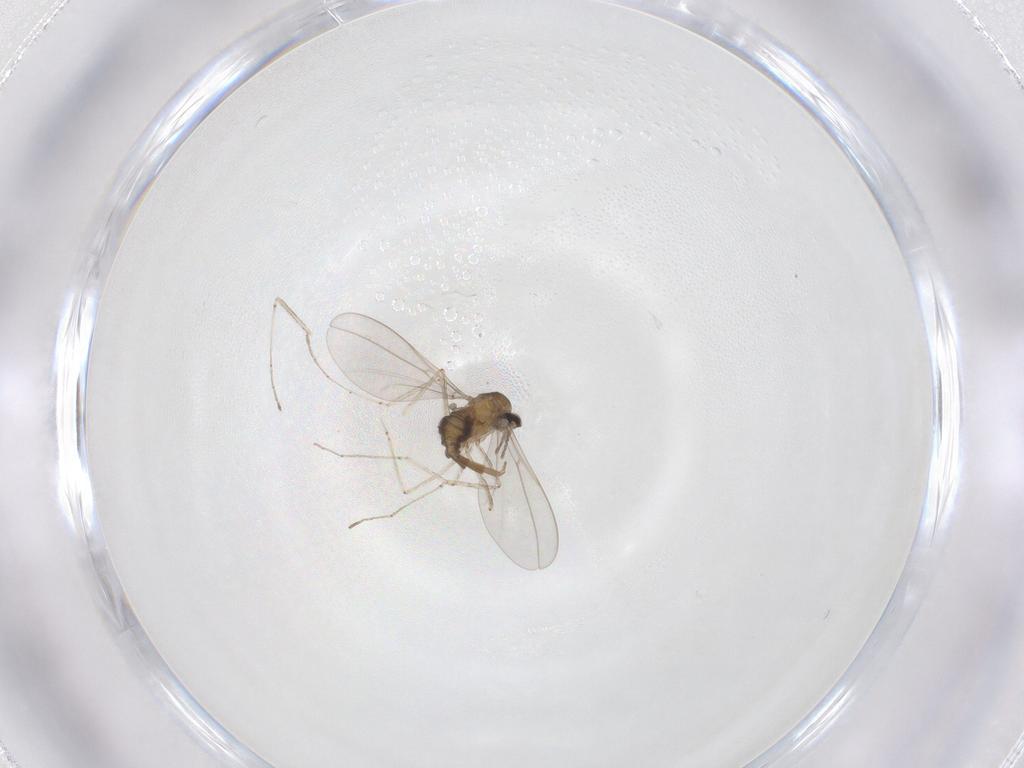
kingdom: Animalia
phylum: Arthropoda
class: Insecta
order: Diptera
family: Cecidomyiidae
